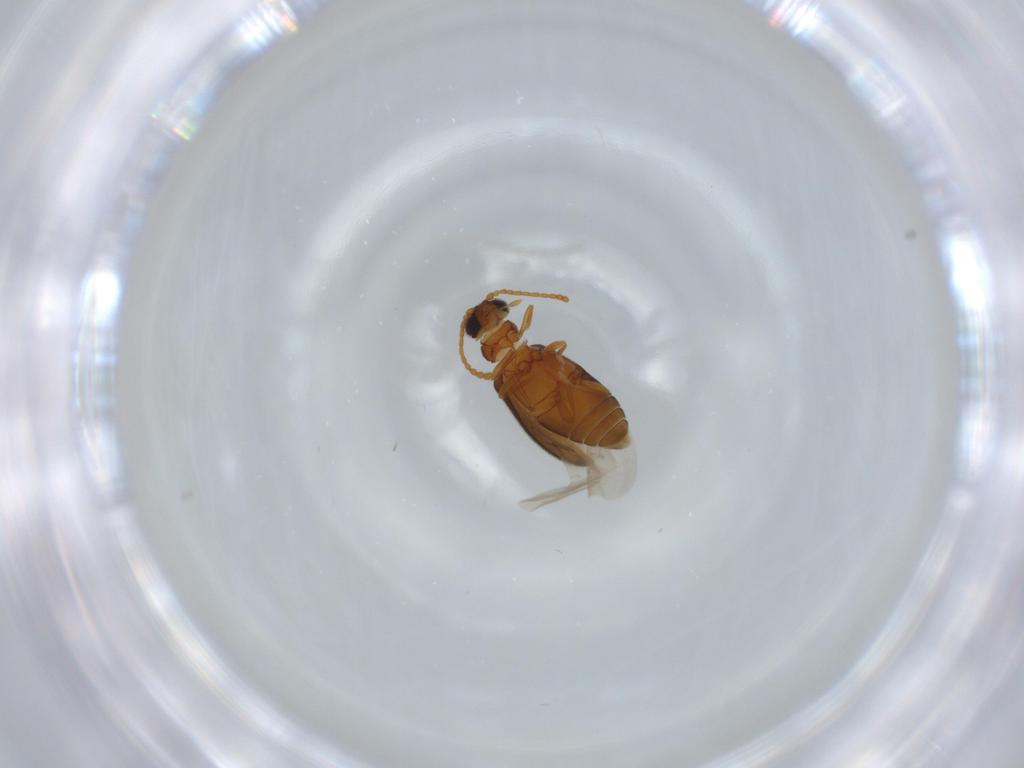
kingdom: Animalia
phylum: Arthropoda
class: Insecta
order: Coleoptera
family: Aderidae
